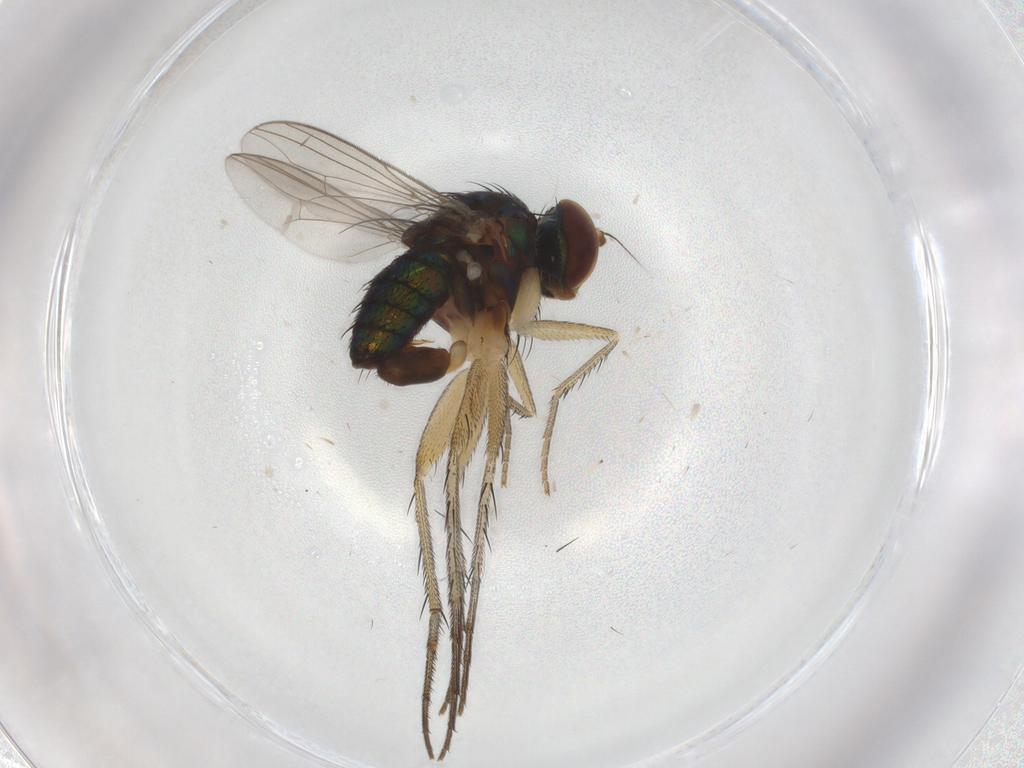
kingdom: Animalia
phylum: Arthropoda
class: Insecta
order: Diptera
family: Dolichopodidae
